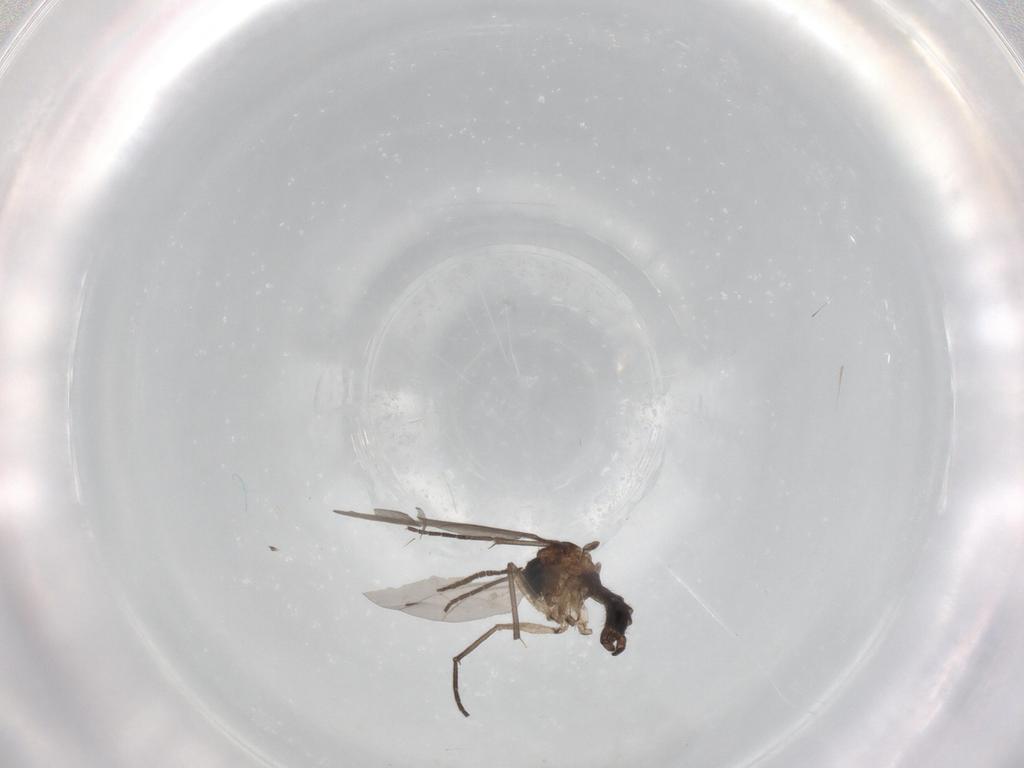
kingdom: Animalia
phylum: Arthropoda
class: Insecta
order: Diptera
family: Sciaridae
